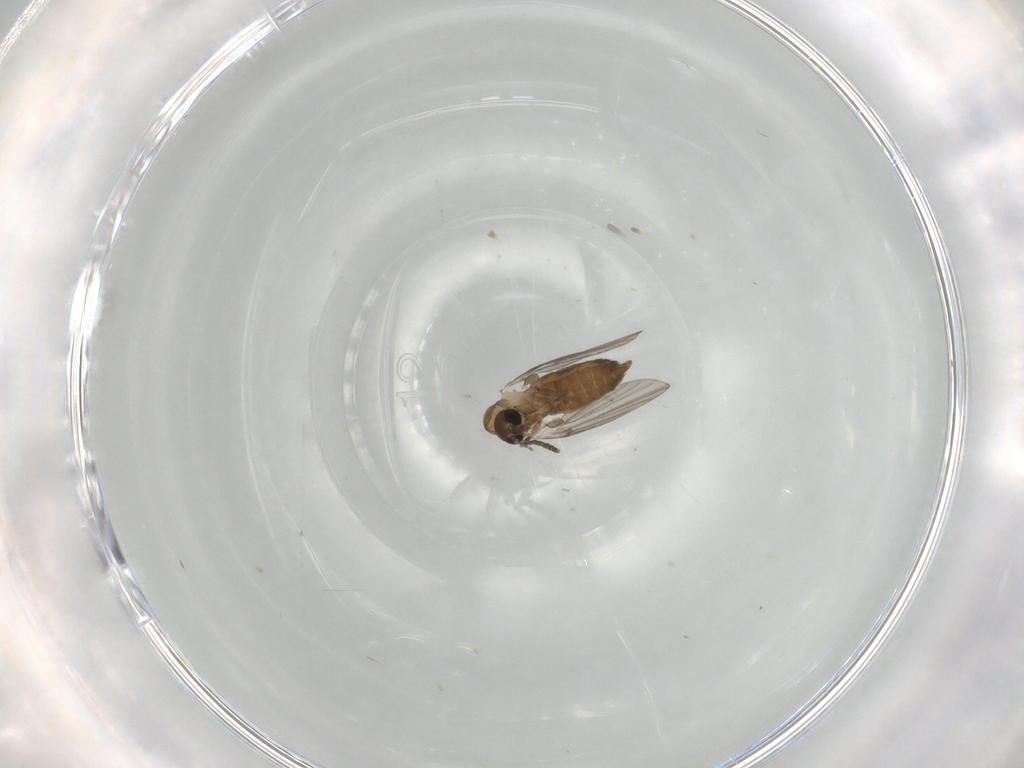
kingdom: Animalia
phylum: Arthropoda
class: Insecta
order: Diptera
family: Psychodidae
